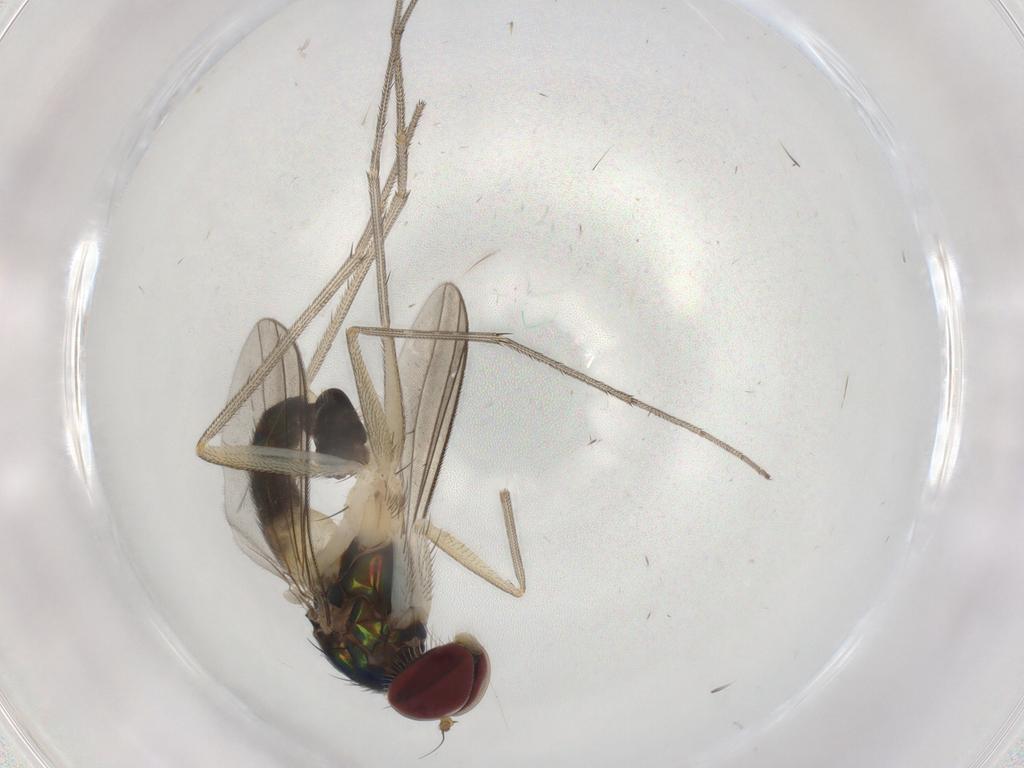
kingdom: Animalia
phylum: Arthropoda
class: Insecta
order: Diptera
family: Dolichopodidae
